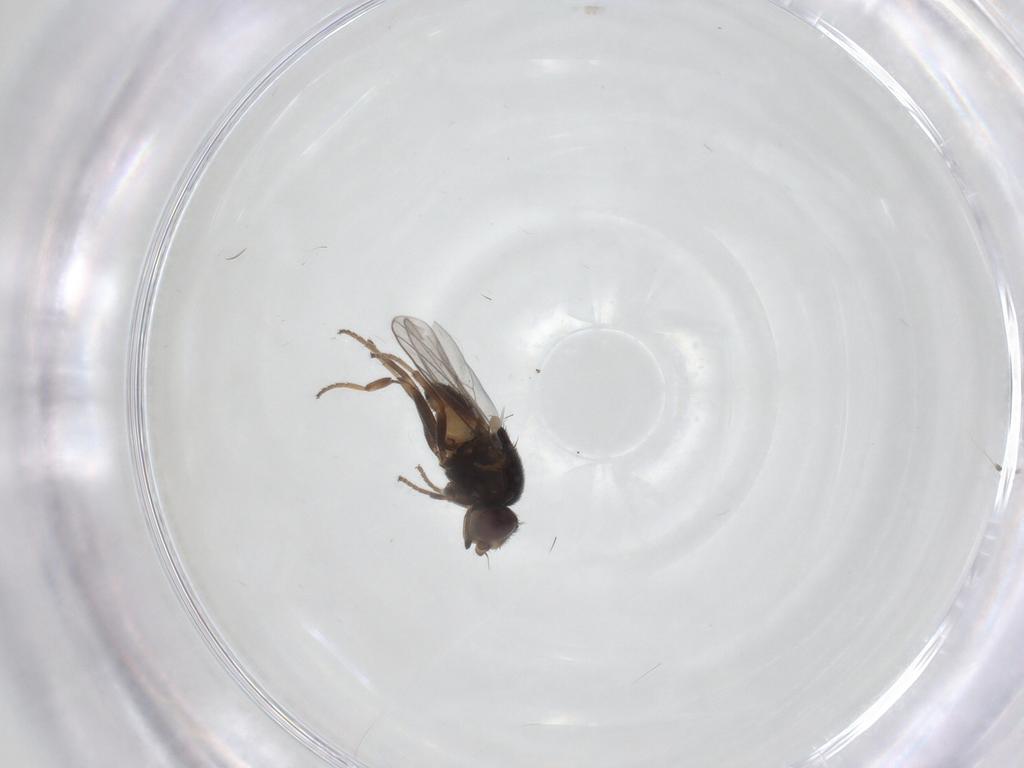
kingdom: Animalia
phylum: Arthropoda
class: Insecta
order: Diptera
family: Chloropidae
